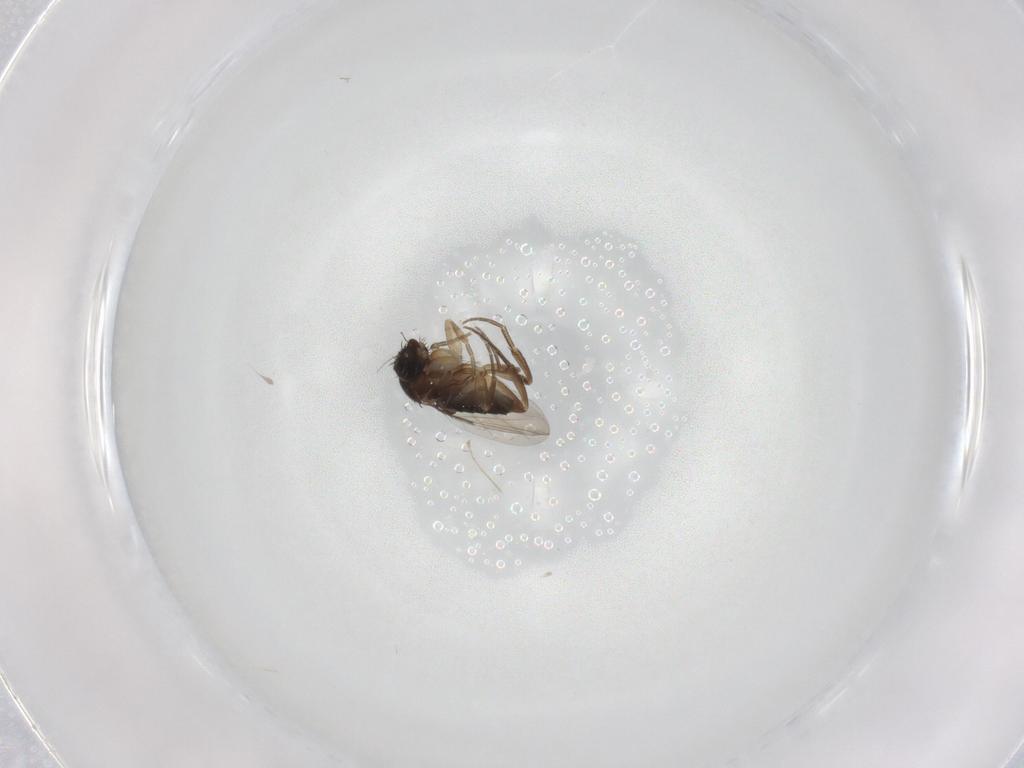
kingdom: Animalia
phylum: Arthropoda
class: Insecta
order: Diptera
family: Phoridae
